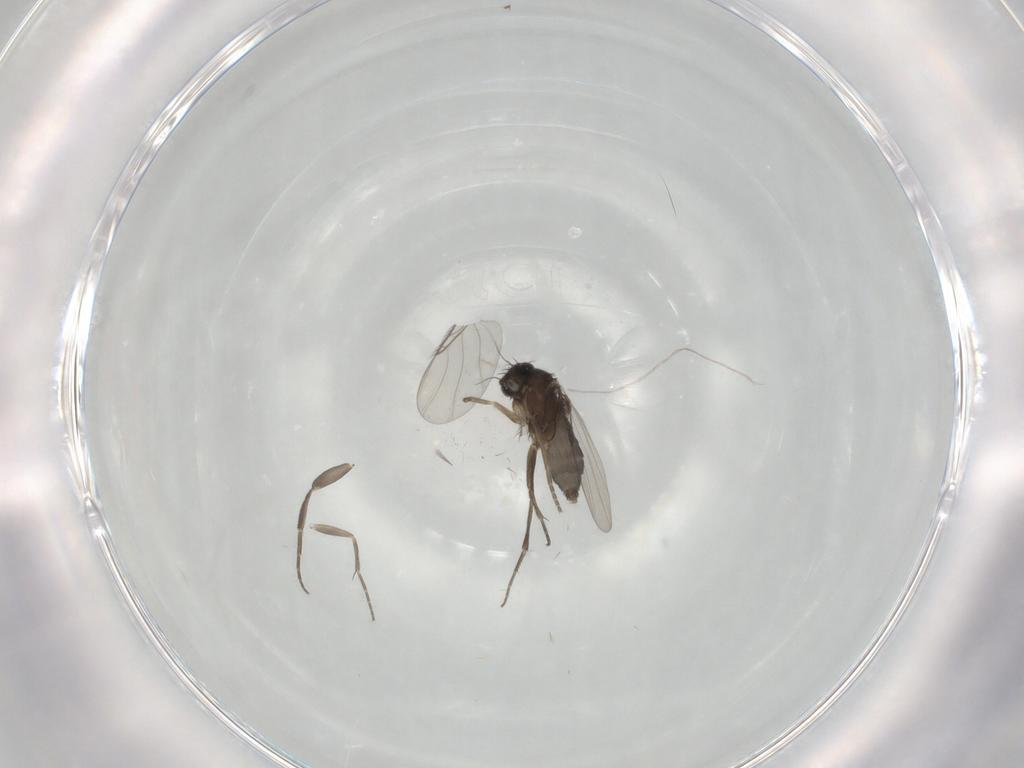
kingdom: Animalia
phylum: Arthropoda
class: Insecta
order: Diptera
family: Phoridae
